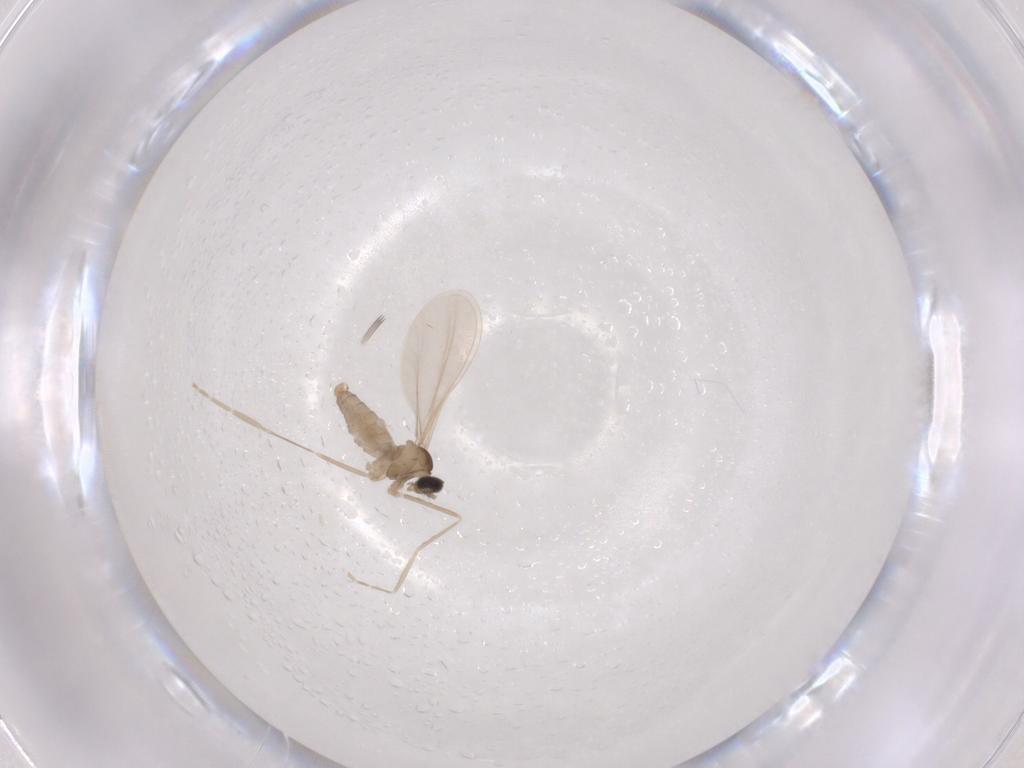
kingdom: Animalia
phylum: Arthropoda
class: Insecta
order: Diptera
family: Cecidomyiidae
